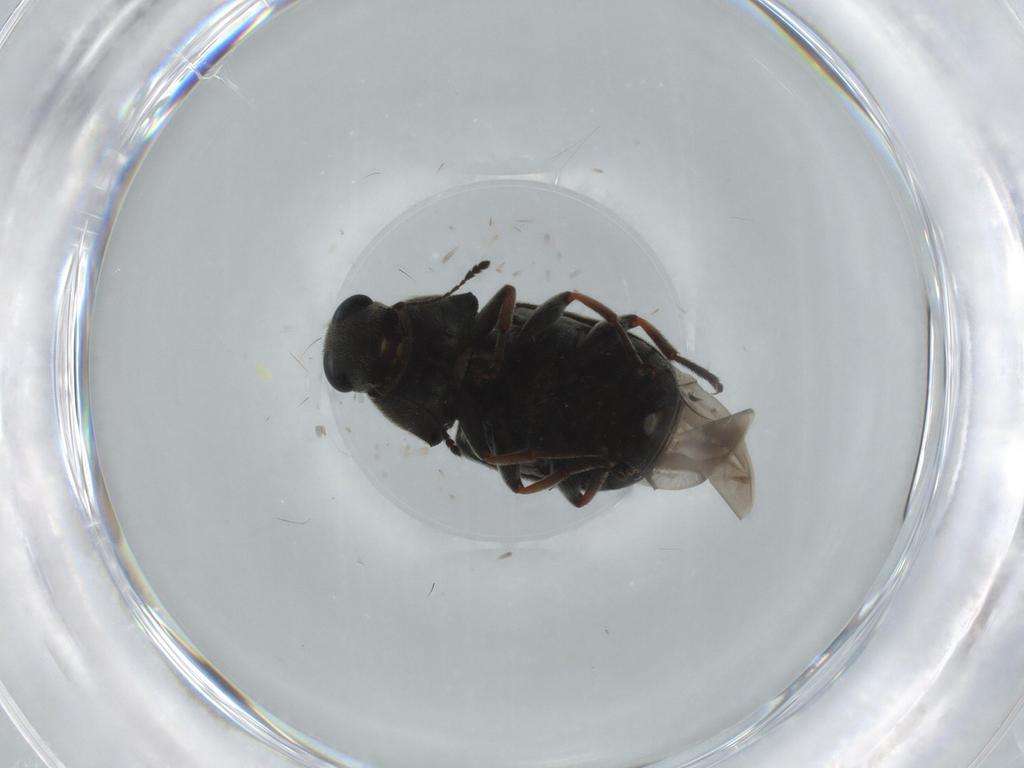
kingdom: Animalia
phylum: Arthropoda
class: Insecta
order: Coleoptera
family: Anthribidae
